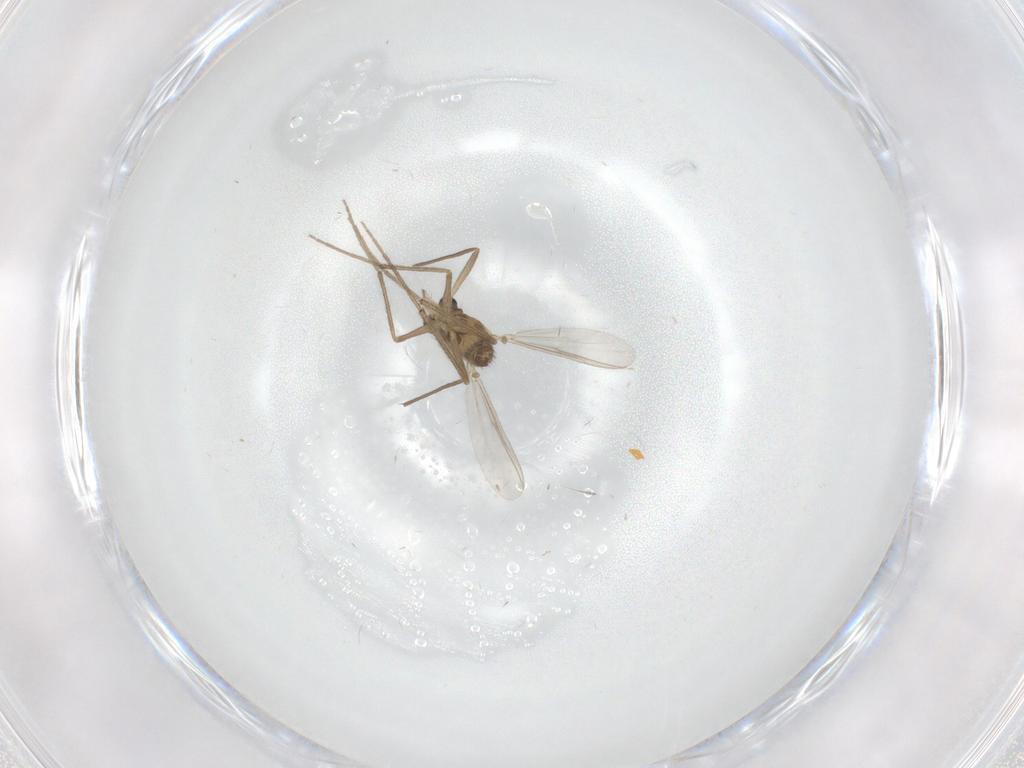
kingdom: Animalia
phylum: Arthropoda
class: Insecta
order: Diptera
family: Chironomidae
